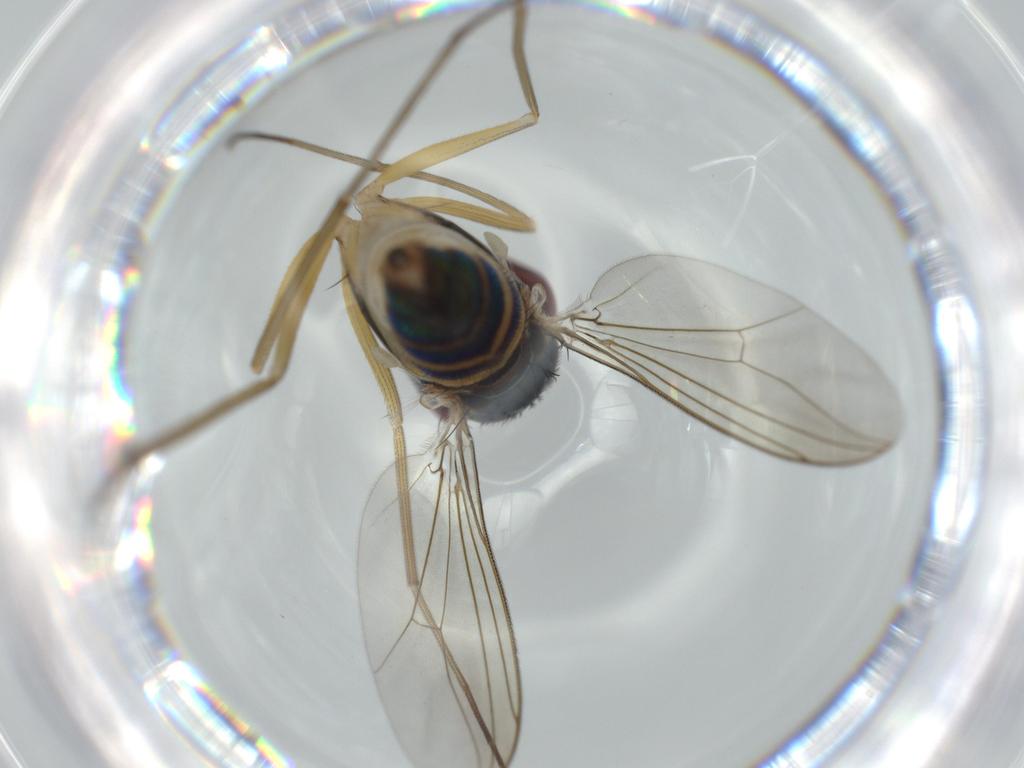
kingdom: Animalia
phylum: Arthropoda
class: Insecta
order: Diptera
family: Dolichopodidae
